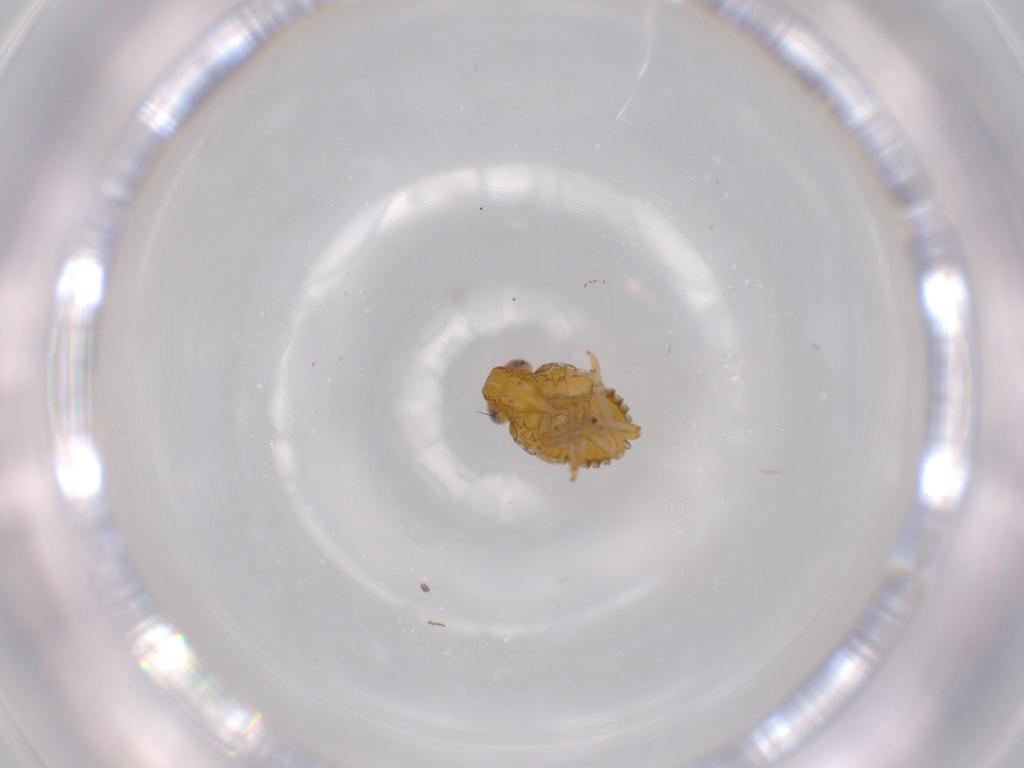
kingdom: Animalia
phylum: Arthropoda
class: Insecta
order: Hemiptera
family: Issidae
